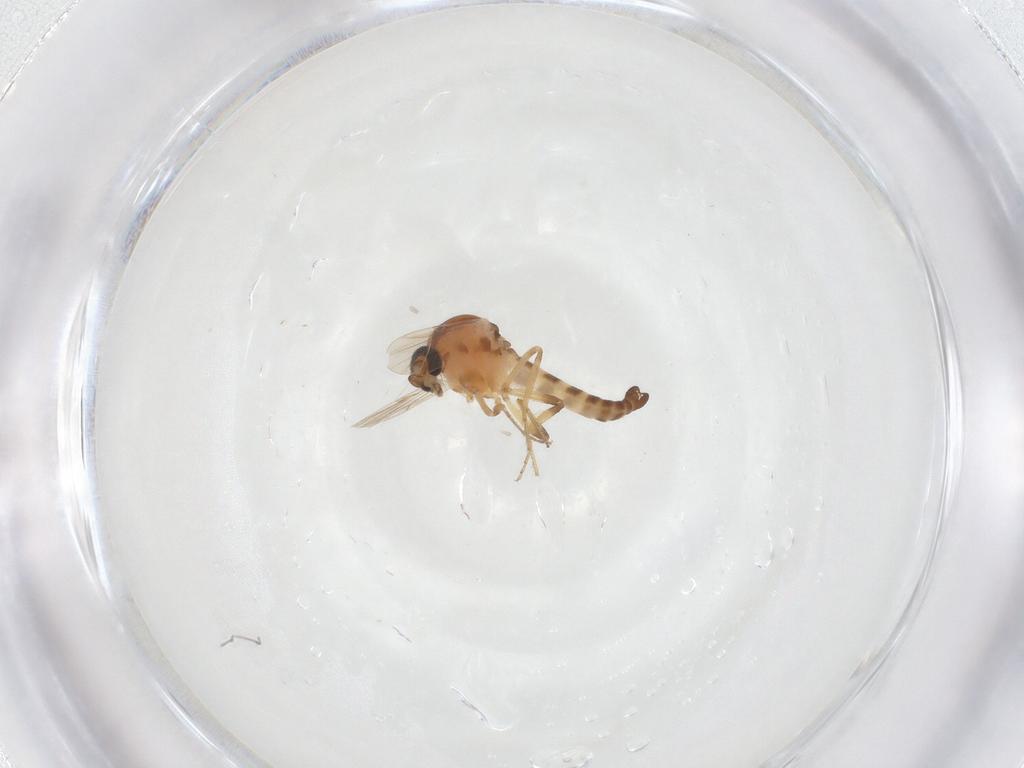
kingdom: Animalia
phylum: Arthropoda
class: Insecta
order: Diptera
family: Ceratopogonidae
